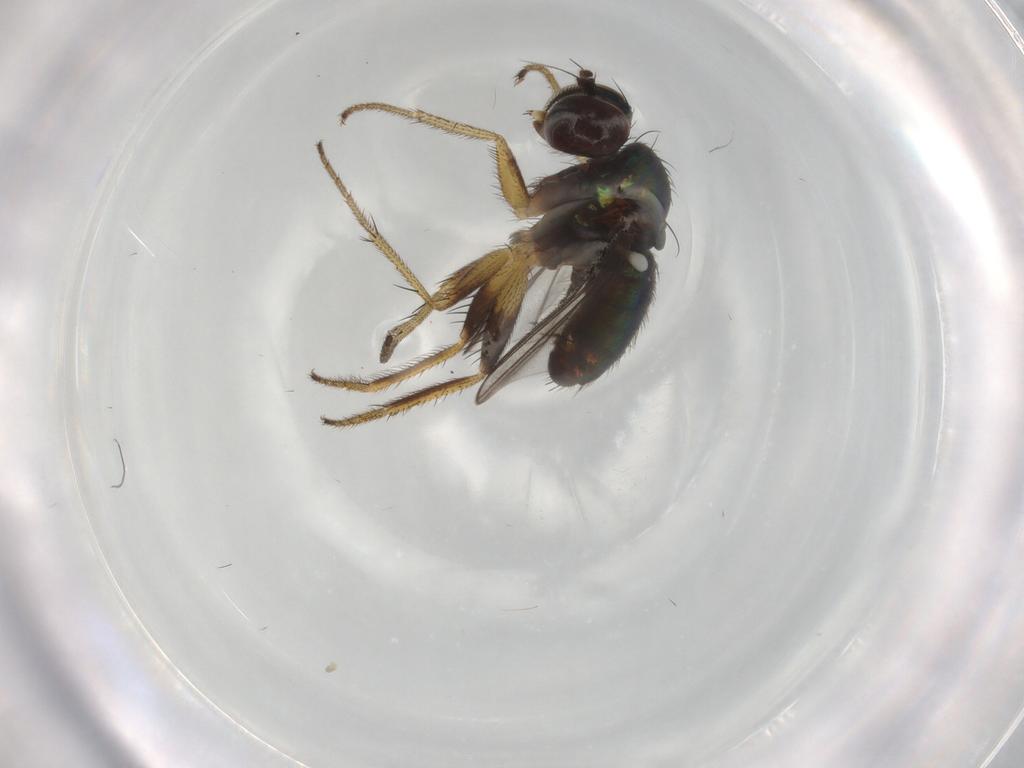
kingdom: Animalia
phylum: Arthropoda
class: Insecta
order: Diptera
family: Dolichopodidae
